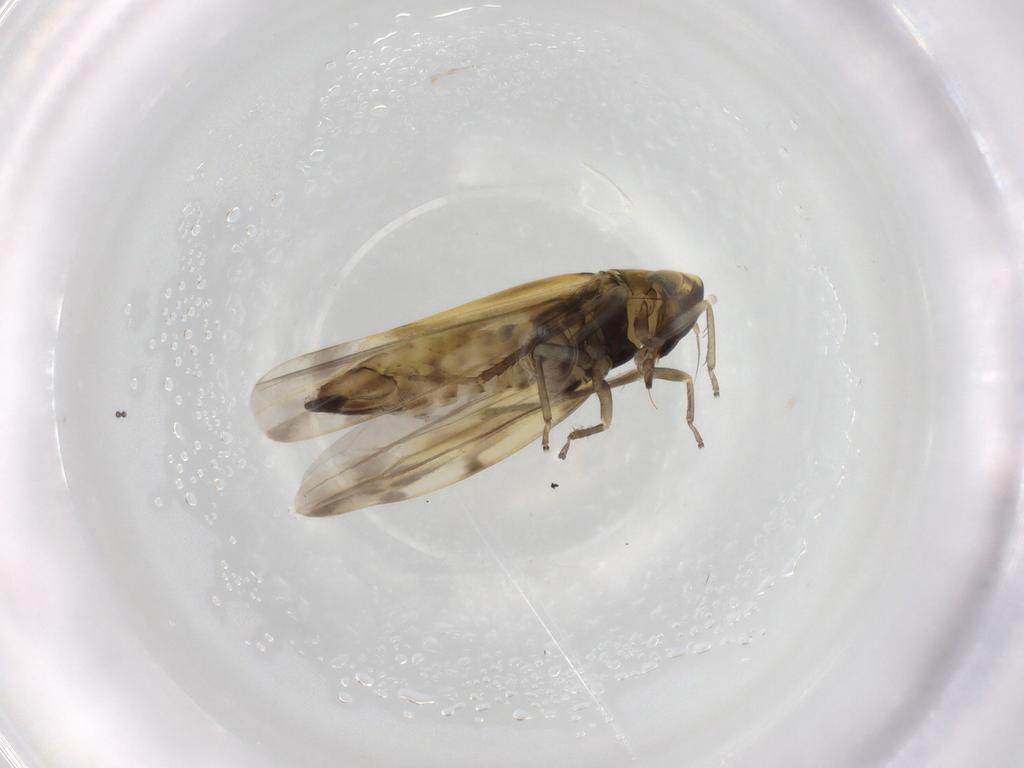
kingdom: Animalia
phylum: Arthropoda
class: Insecta
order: Hemiptera
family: Cicadellidae
